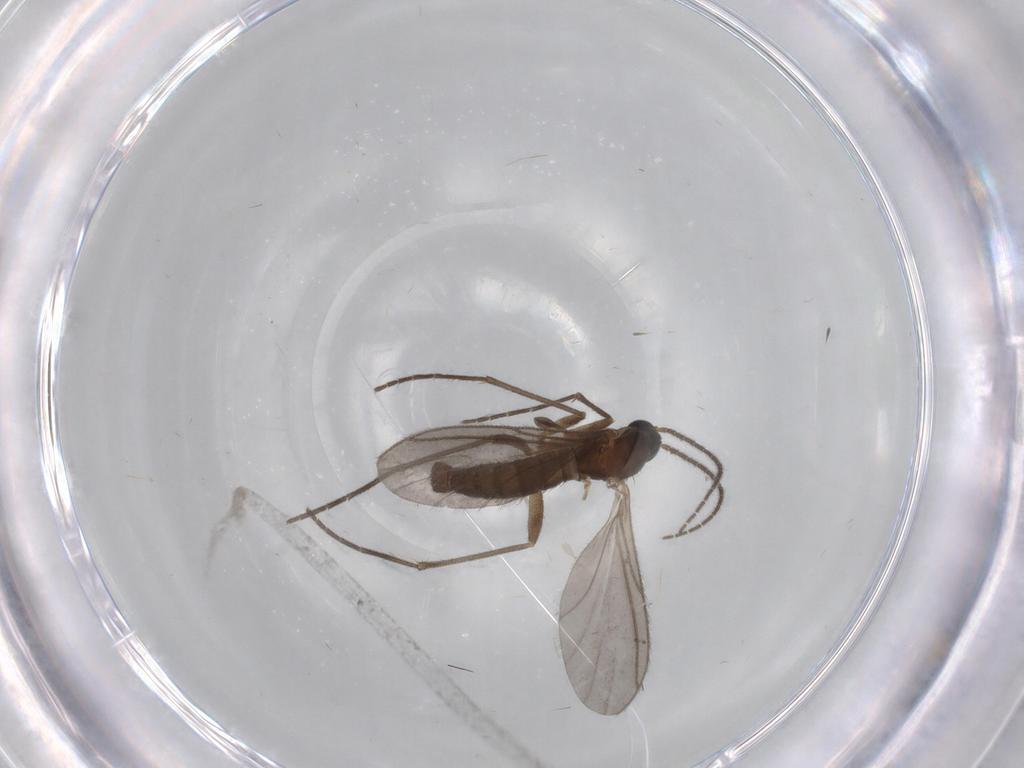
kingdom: Animalia
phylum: Arthropoda
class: Insecta
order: Diptera
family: Sciaridae
